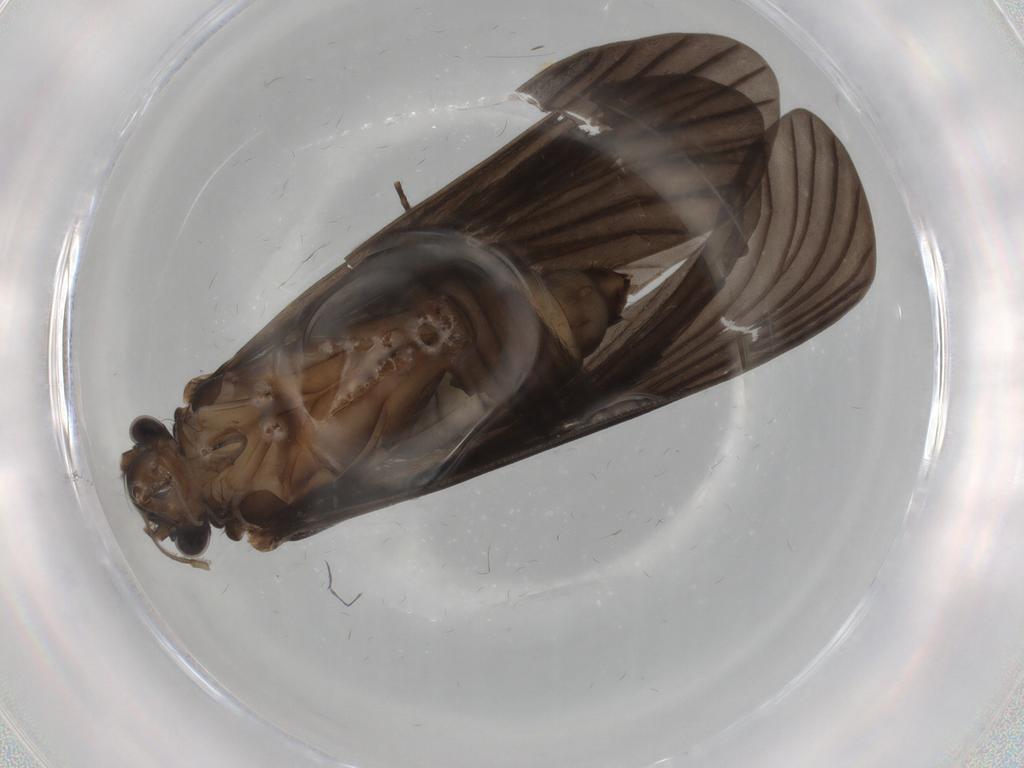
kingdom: Animalia
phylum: Arthropoda
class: Insecta
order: Trichoptera
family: Philopotamidae
